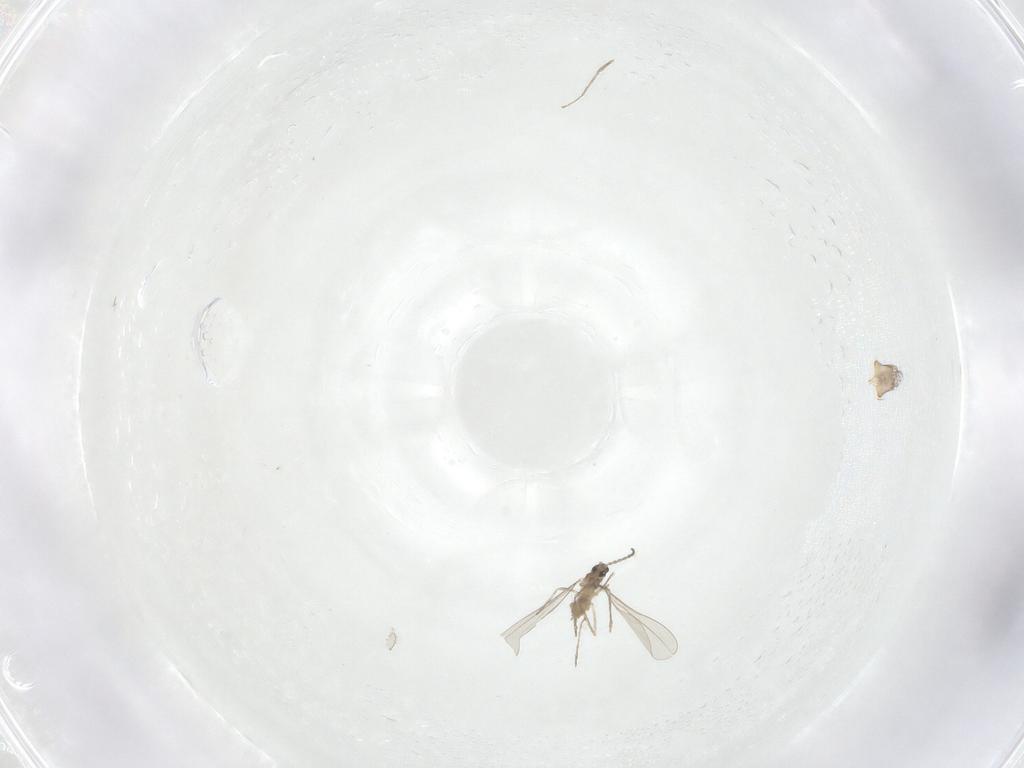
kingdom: Animalia
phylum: Arthropoda
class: Insecta
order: Diptera
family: Cecidomyiidae
